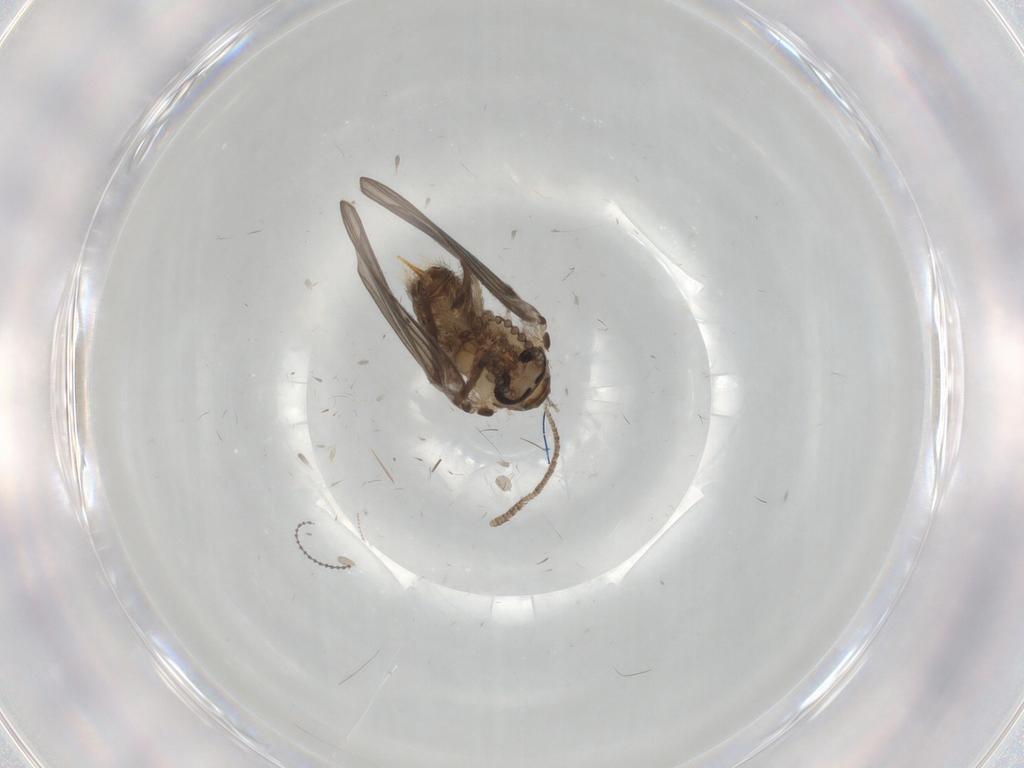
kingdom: Animalia
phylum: Arthropoda
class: Insecta
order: Diptera
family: Psychodidae
